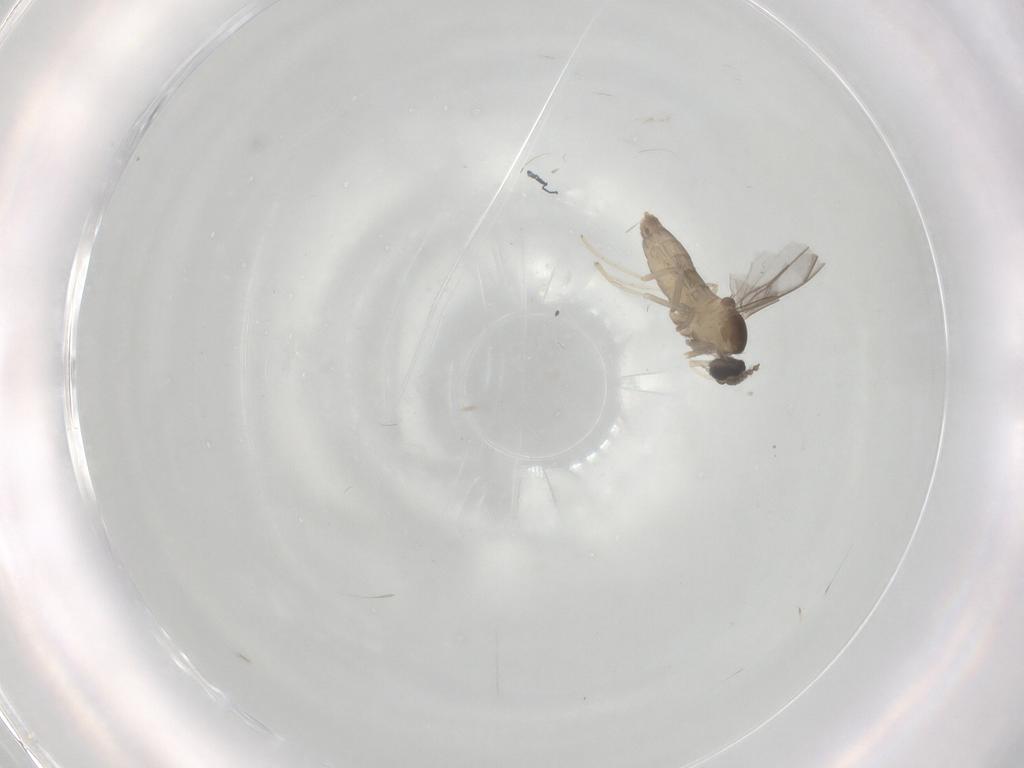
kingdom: Animalia
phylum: Arthropoda
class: Insecta
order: Diptera
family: Cecidomyiidae
